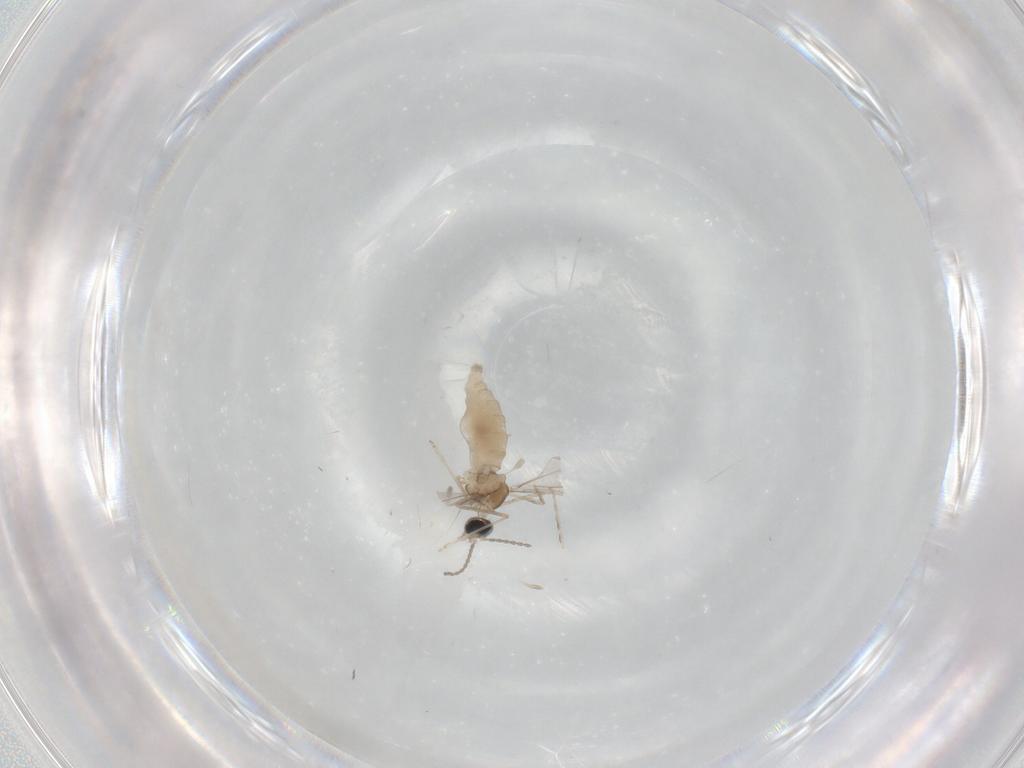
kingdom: Animalia
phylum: Arthropoda
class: Insecta
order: Diptera
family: Cecidomyiidae
